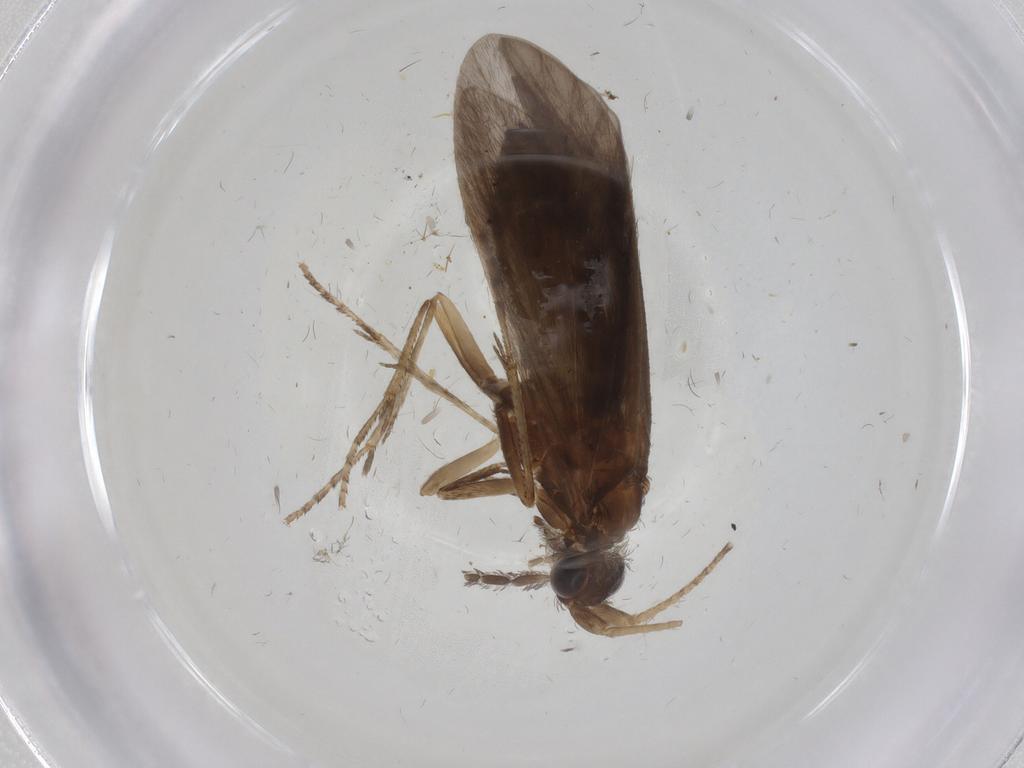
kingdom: Animalia
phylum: Arthropoda
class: Insecta
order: Trichoptera
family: Helicopsychidae
